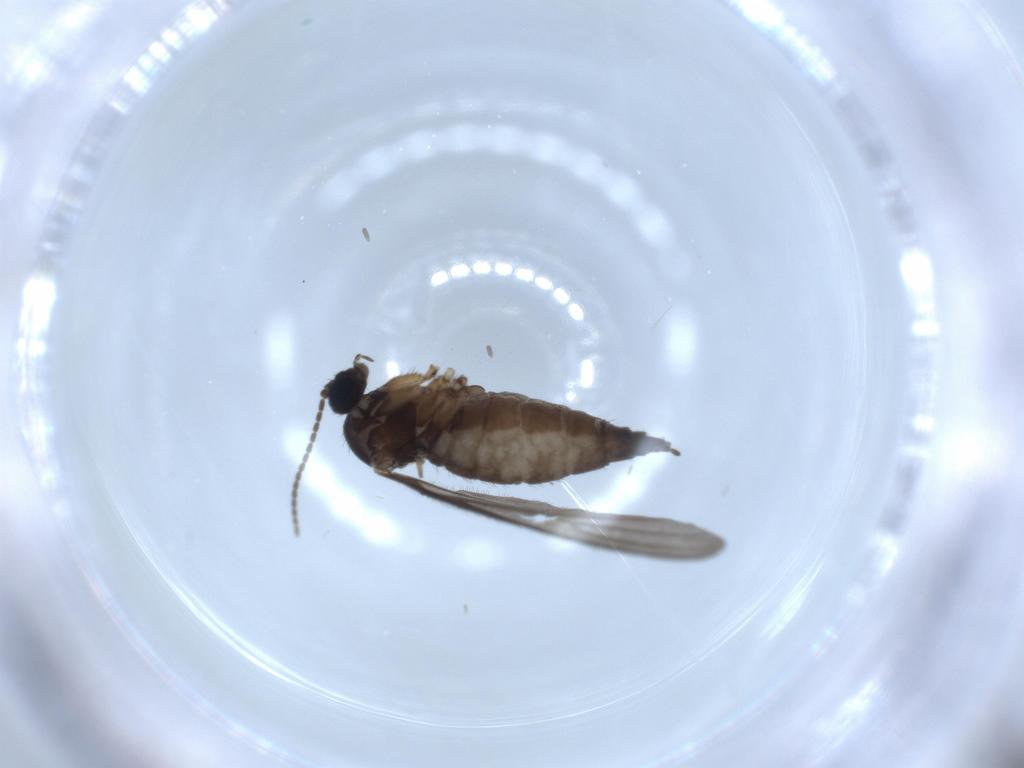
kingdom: Animalia
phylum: Arthropoda
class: Insecta
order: Diptera
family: Sciaridae
